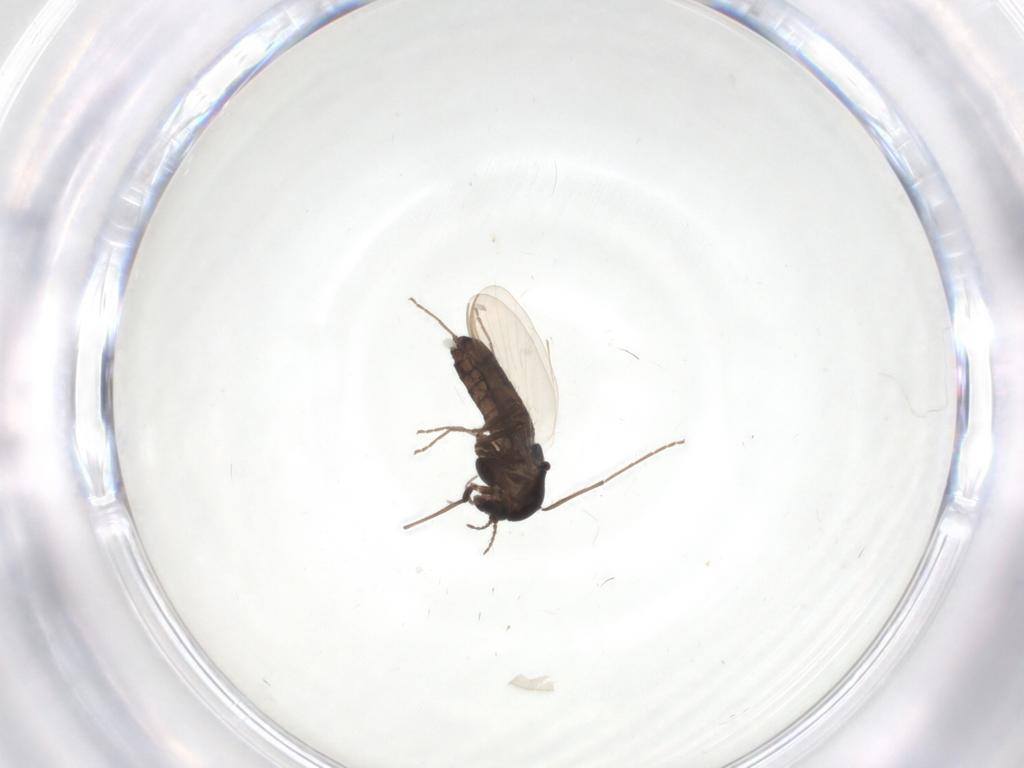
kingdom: Animalia
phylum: Arthropoda
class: Insecta
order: Diptera
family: Chironomidae
